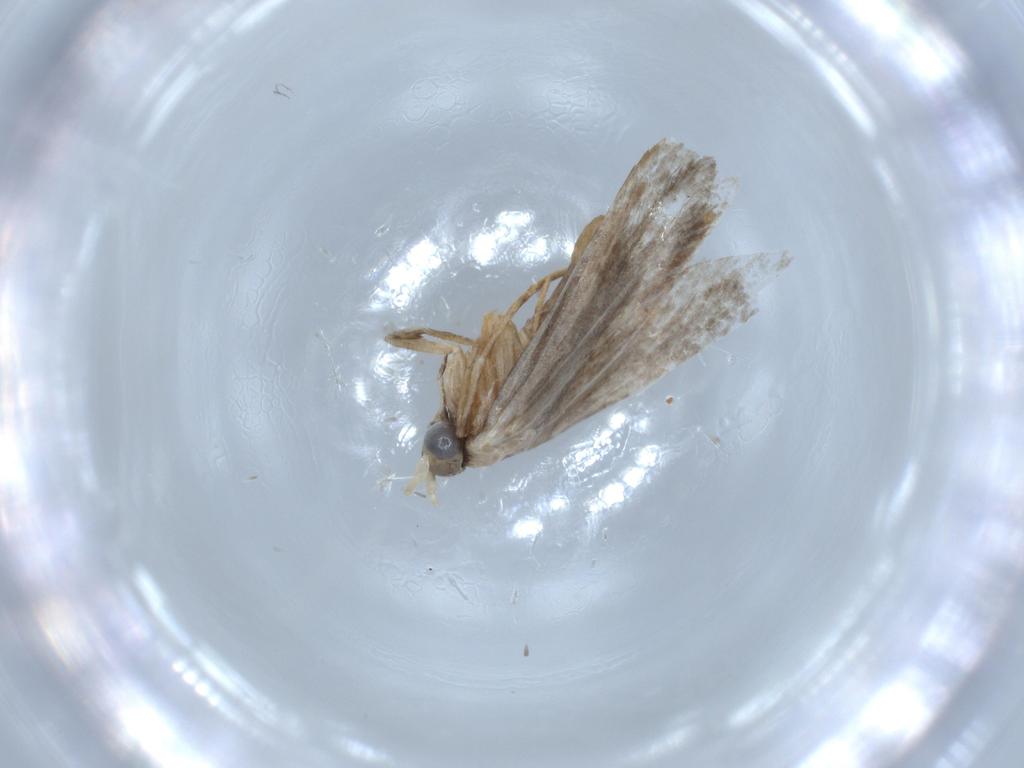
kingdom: Animalia
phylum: Arthropoda
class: Insecta
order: Lepidoptera
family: Tineidae
